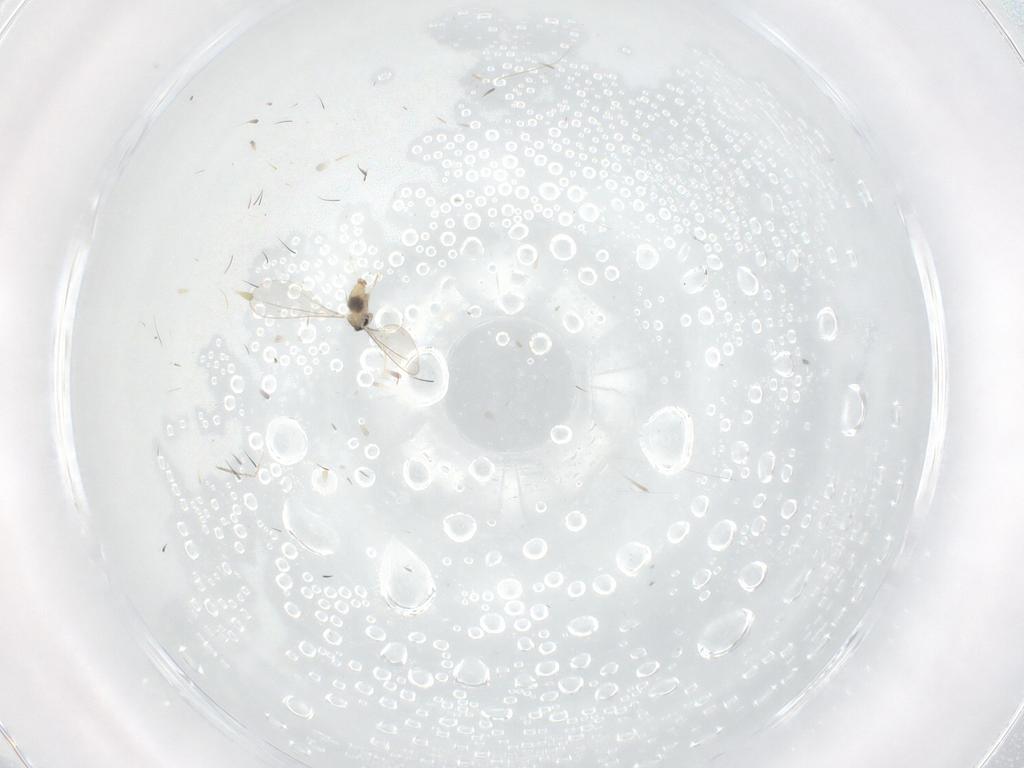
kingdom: Animalia
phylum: Arthropoda
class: Insecta
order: Diptera
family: Cecidomyiidae
